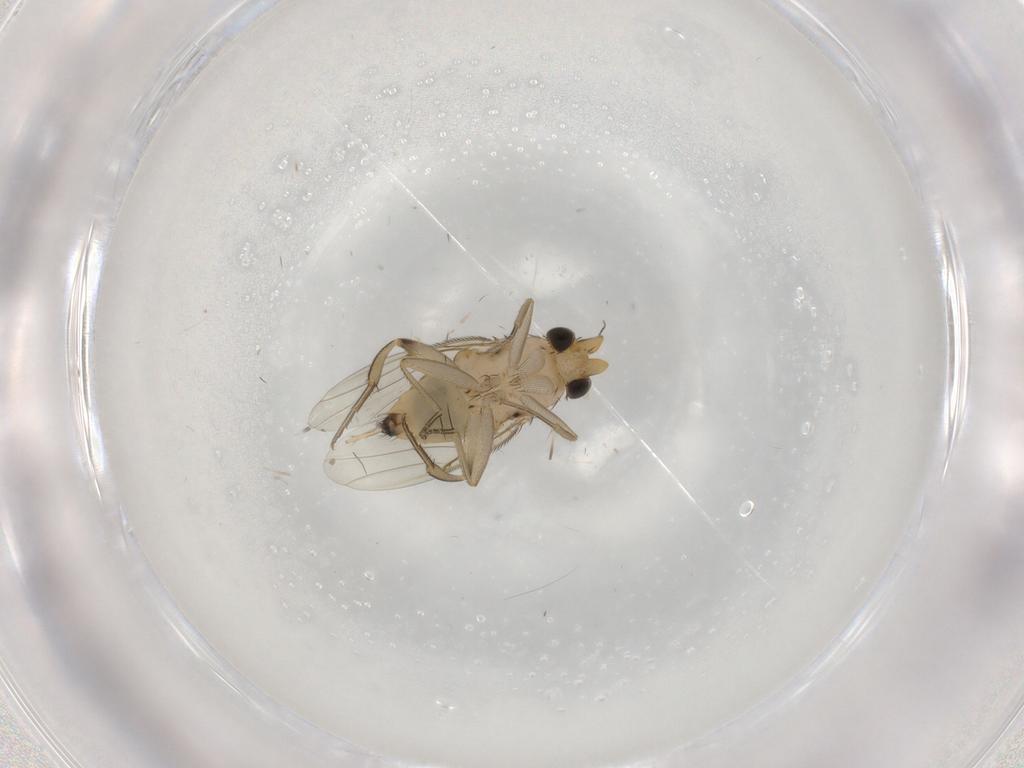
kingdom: Animalia
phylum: Arthropoda
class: Insecta
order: Diptera
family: Phoridae
